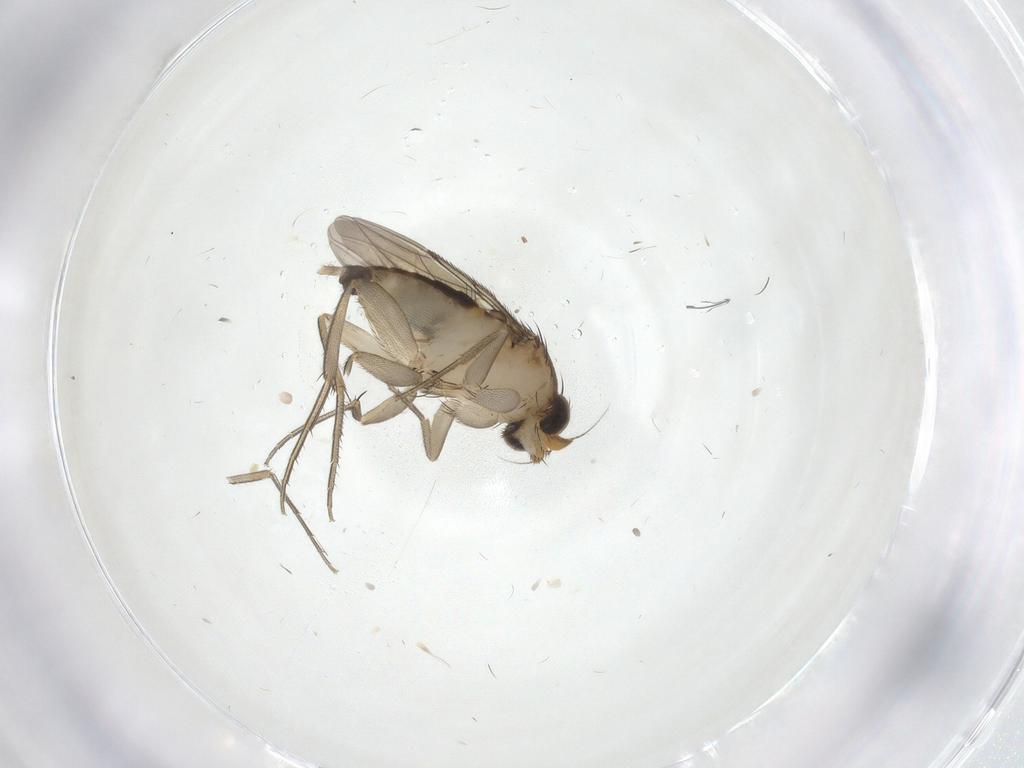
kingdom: Animalia
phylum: Arthropoda
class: Insecta
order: Diptera
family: Phoridae
